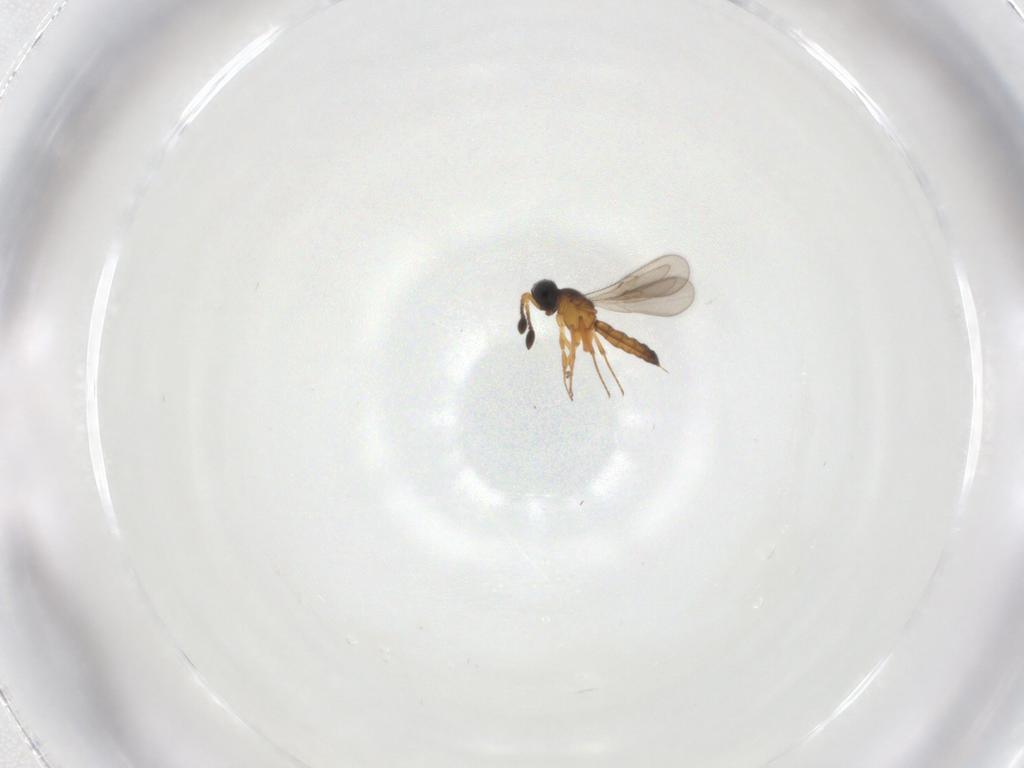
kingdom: Animalia
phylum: Arthropoda
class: Insecta
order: Hymenoptera
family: Scelionidae
